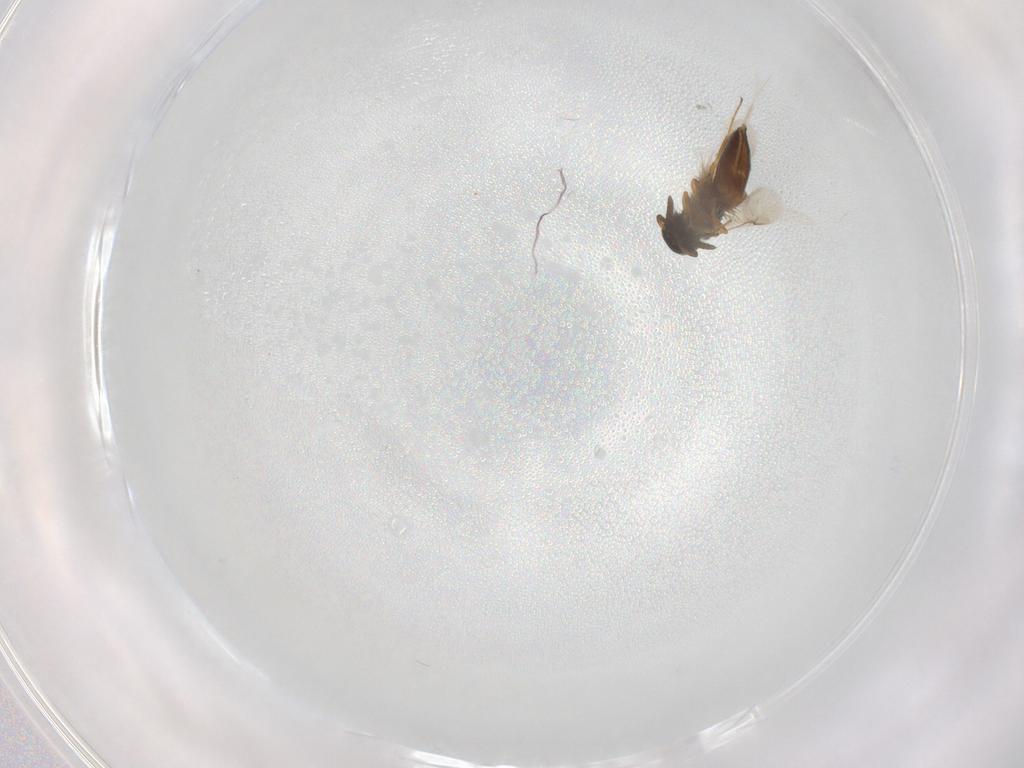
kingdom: Animalia
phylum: Arthropoda
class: Insecta
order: Hymenoptera
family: Scelionidae
